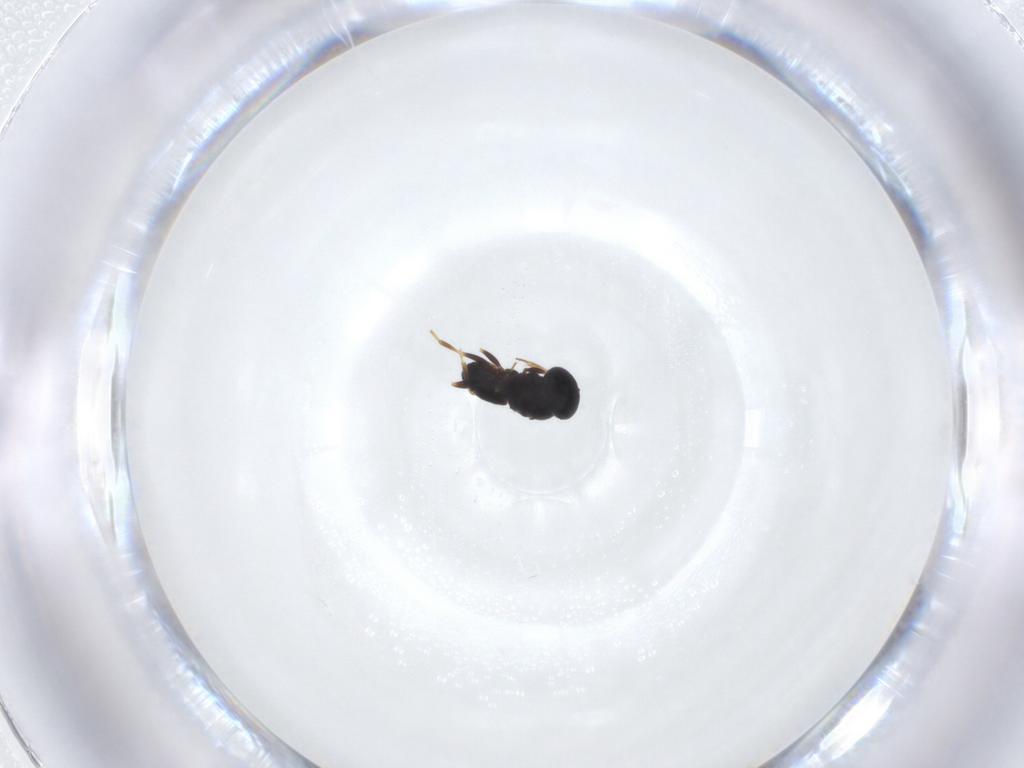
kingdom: Animalia
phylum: Arthropoda
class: Insecta
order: Hymenoptera
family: Scelionidae
